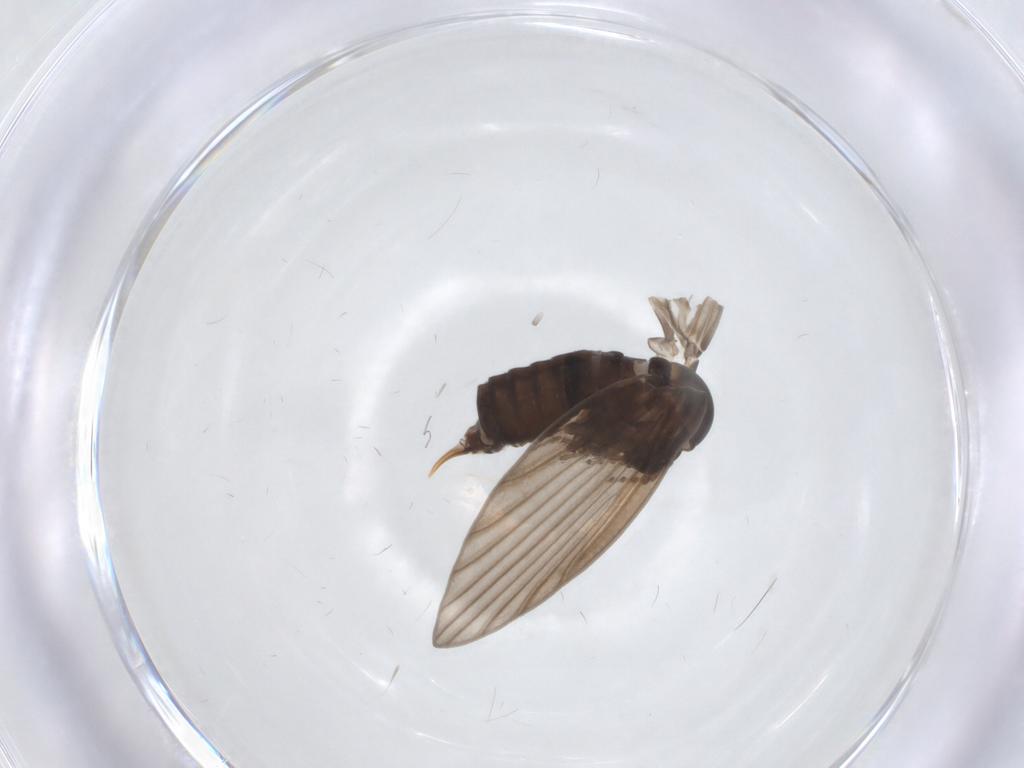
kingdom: Animalia
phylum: Arthropoda
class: Insecta
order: Diptera
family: Psychodidae
